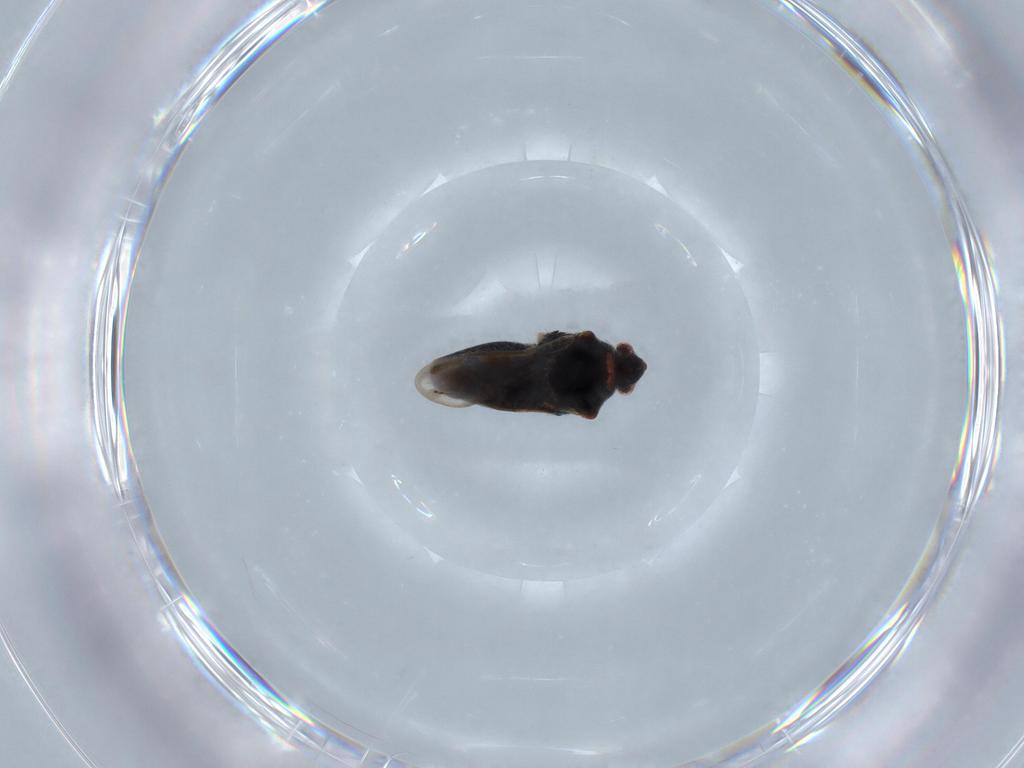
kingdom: Animalia
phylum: Arthropoda
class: Insecta
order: Hemiptera
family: Veliidae
